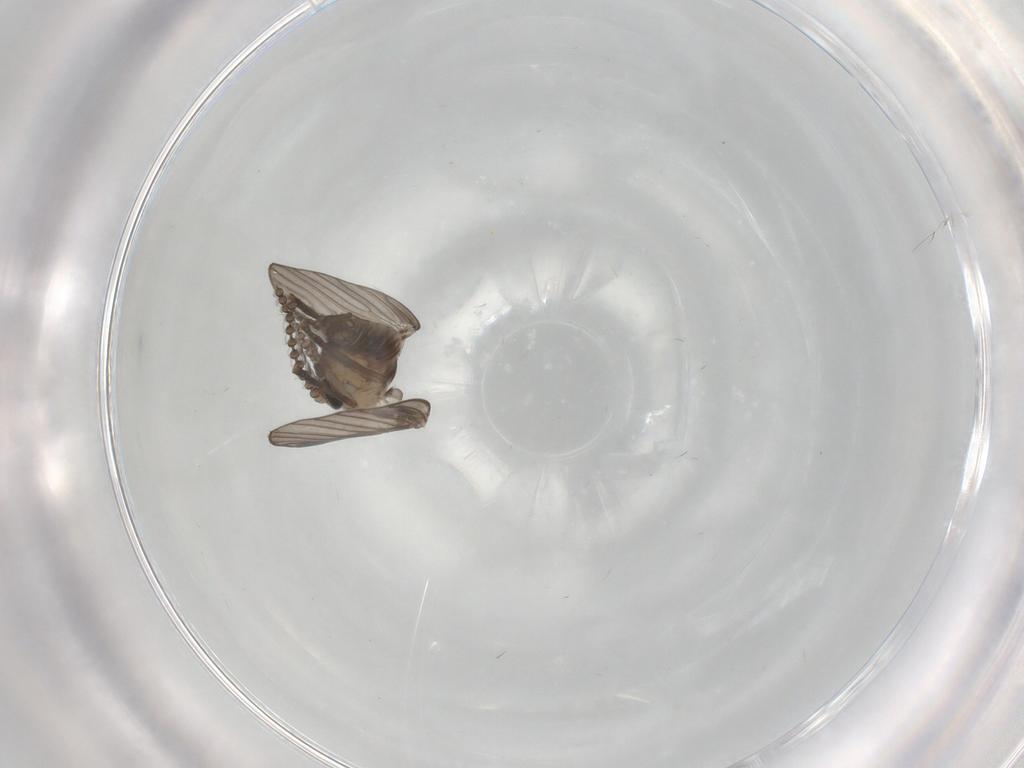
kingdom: Animalia
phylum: Arthropoda
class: Insecta
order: Diptera
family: Psychodidae
